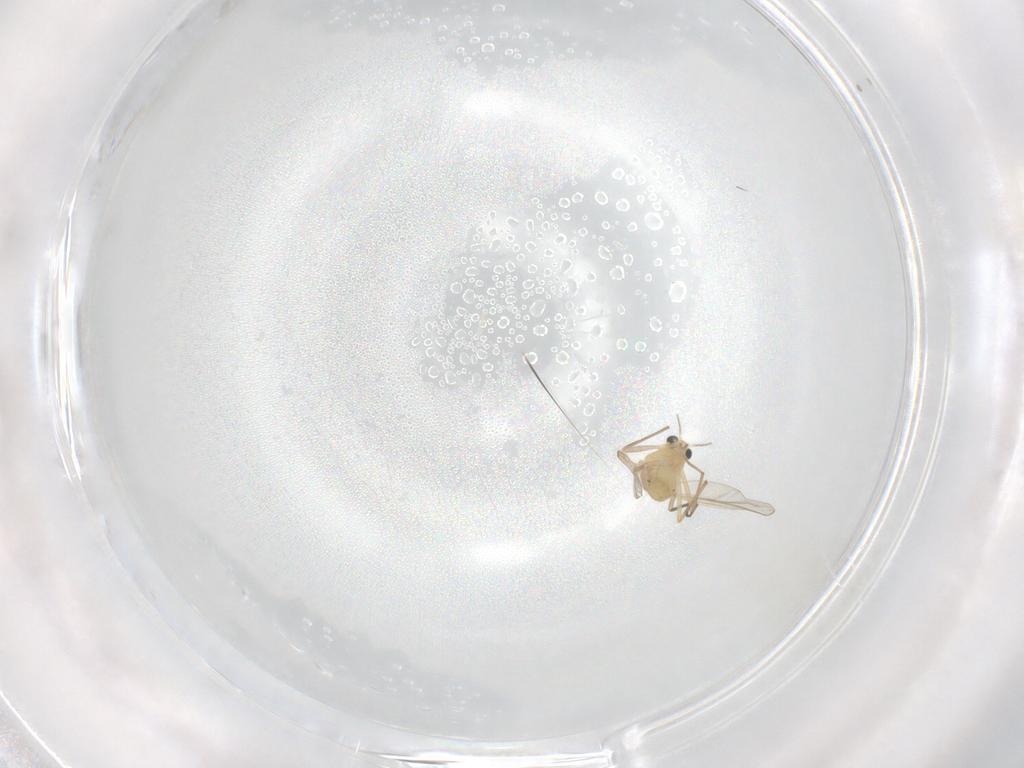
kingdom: Animalia
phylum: Arthropoda
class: Insecta
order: Diptera
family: Chironomidae
